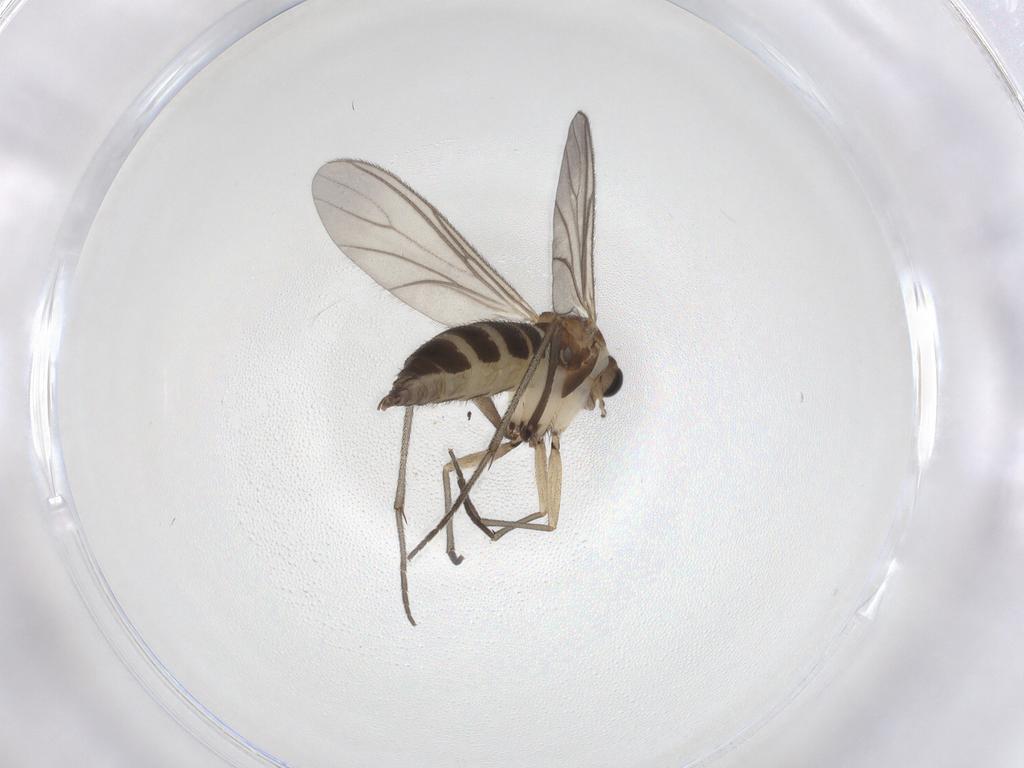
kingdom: Animalia
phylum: Arthropoda
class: Insecta
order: Diptera
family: Sciaridae
